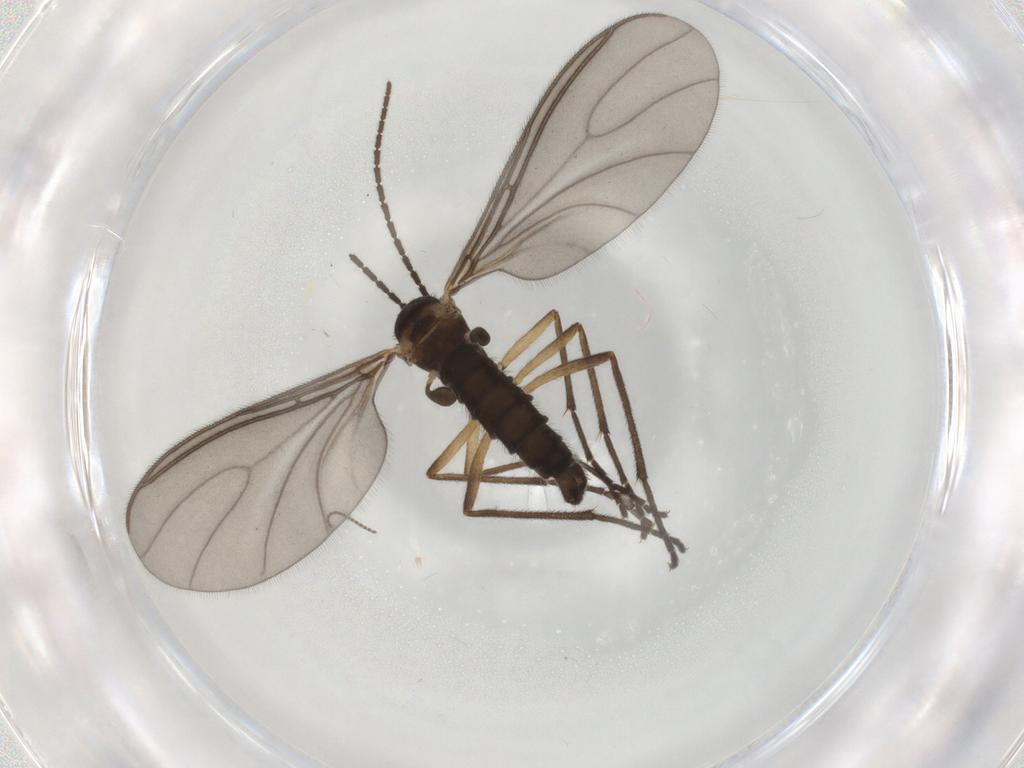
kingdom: Animalia
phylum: Arthropoda
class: Insecta
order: Diptera
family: Sciaridae
